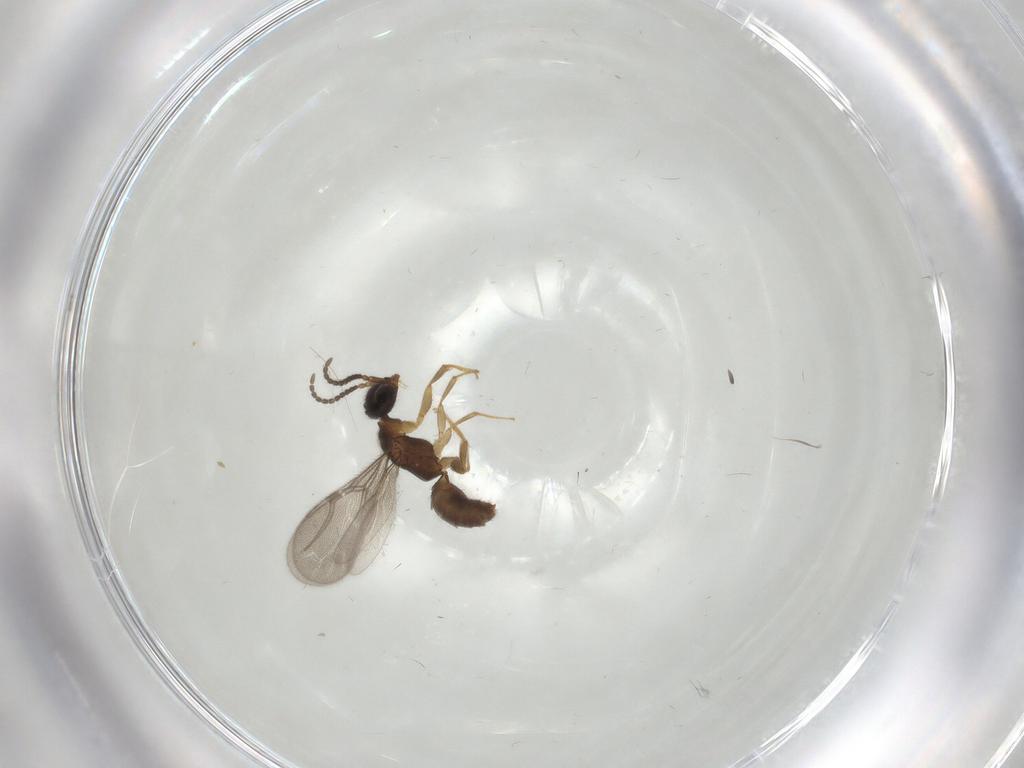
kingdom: Animalia
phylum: Arthropoda
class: Insecta
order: Hymenoptera
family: Bethylidae
